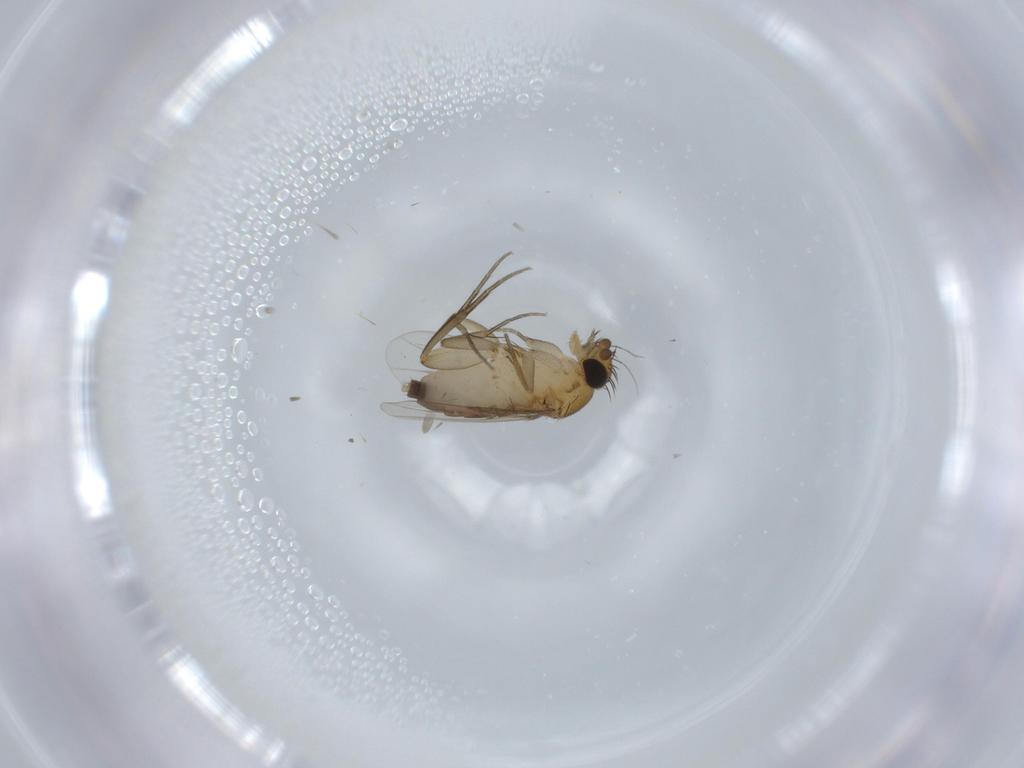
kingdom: Animalia
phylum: Arthropoda
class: Insecta
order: Diptera
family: Phoridae
